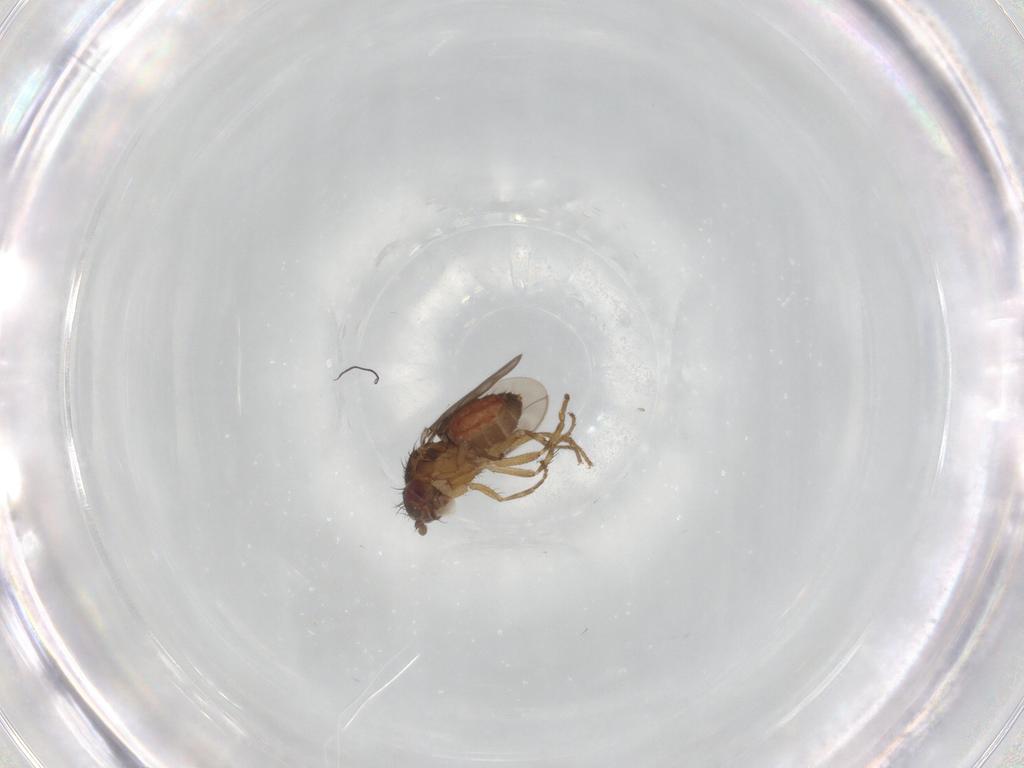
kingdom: Animalia
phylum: Arthropoda
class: Insecta
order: Diptera
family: Sphaeroceridae
